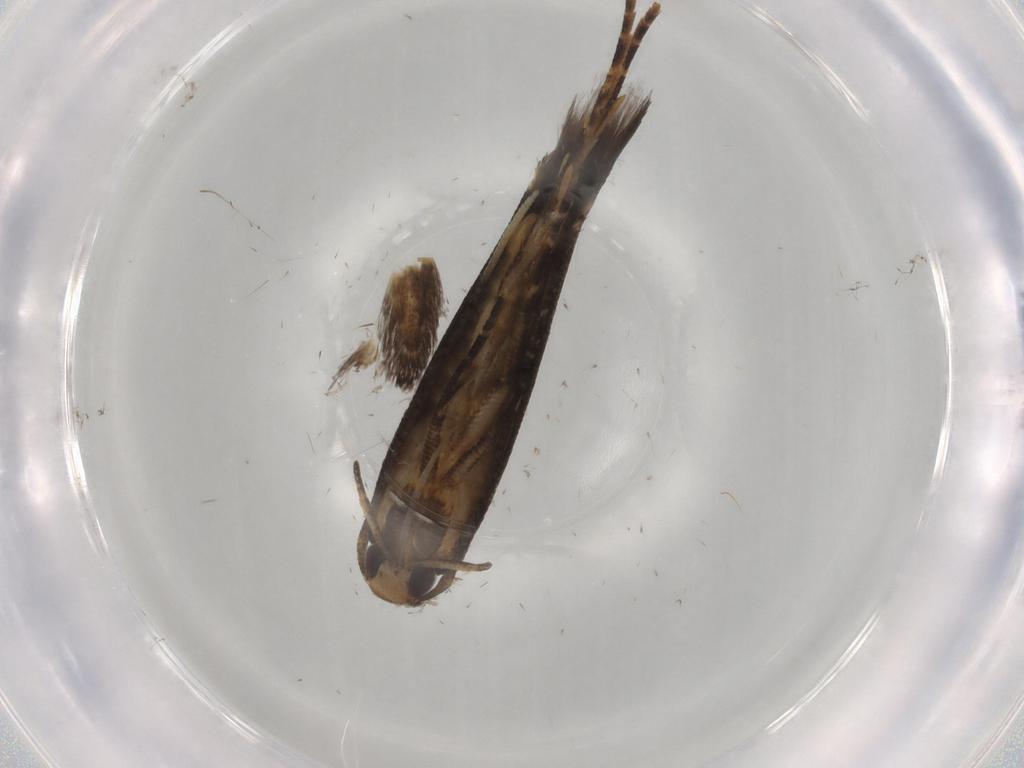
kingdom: Animalia
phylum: Arthropoda
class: Insecta
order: Lepidoptera
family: Cosmopterigidae
